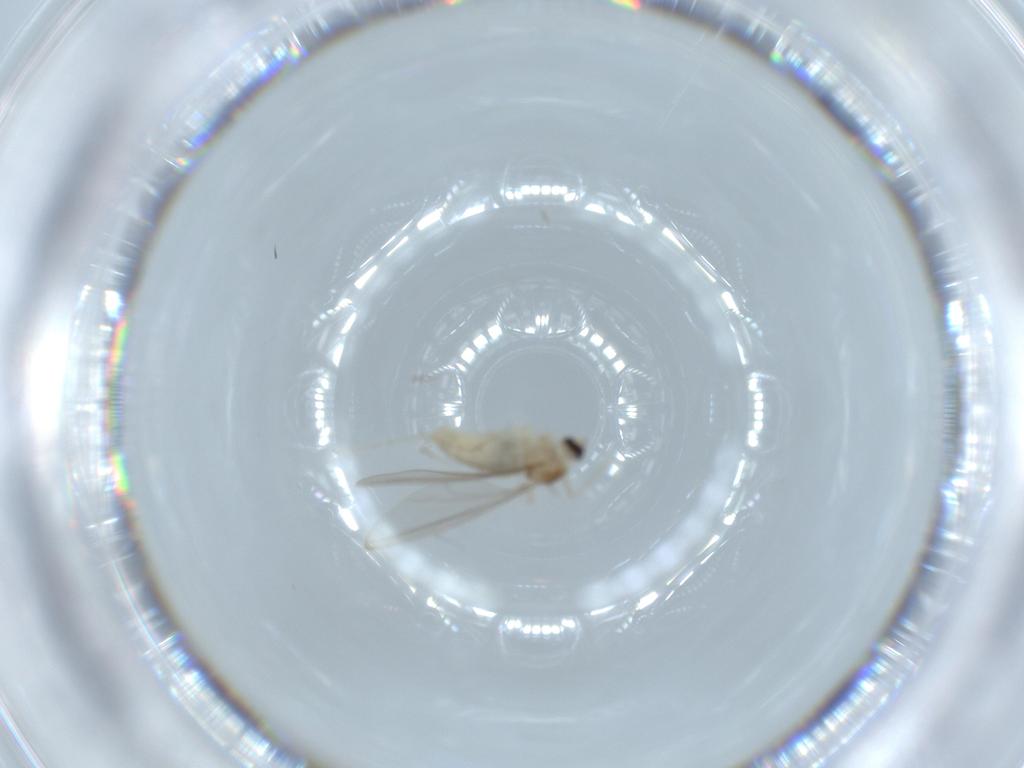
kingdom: Animalia
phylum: Arthropoda
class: Insecta
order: Diptera
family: Cecidomyiidae
